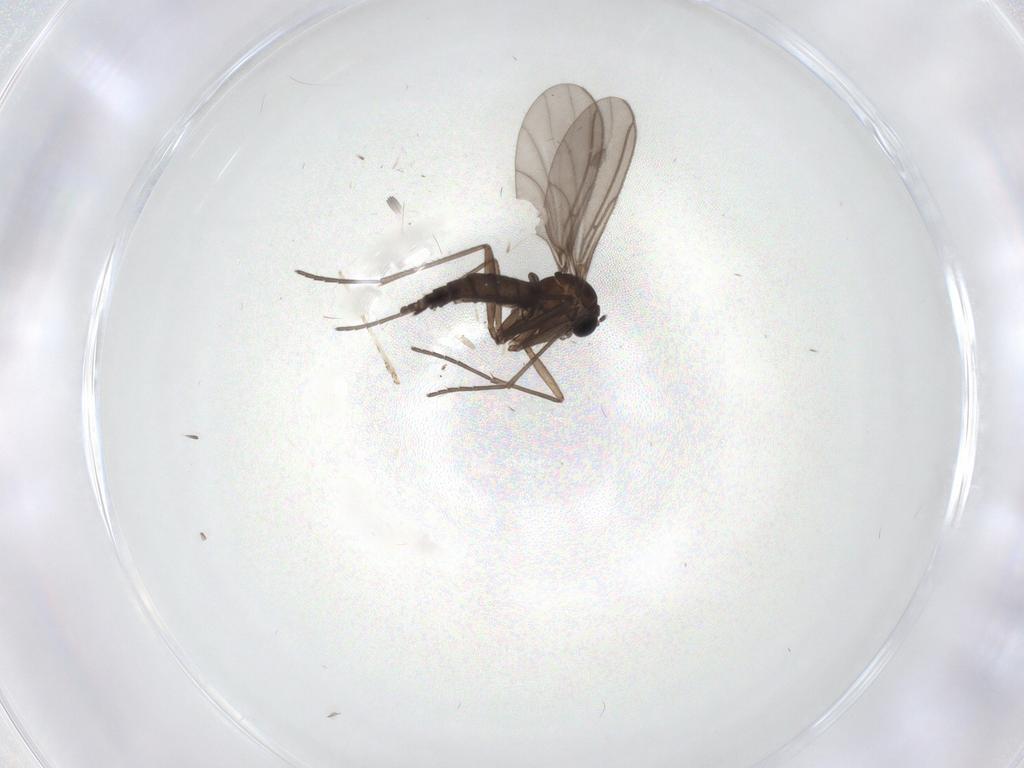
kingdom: Animalia
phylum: Arthropoda
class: Insecta
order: Diptera
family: Sciaridae
